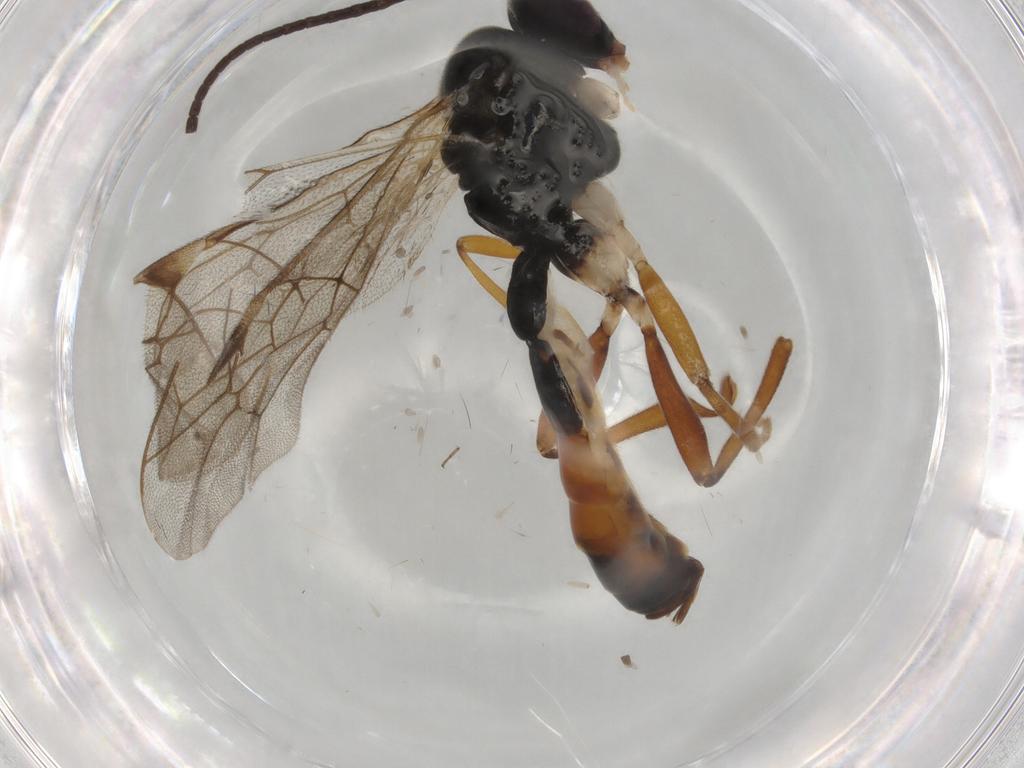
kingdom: Animalia
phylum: Arthropoda
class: Insecta
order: Hymenoptera
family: Ichneumonidae
